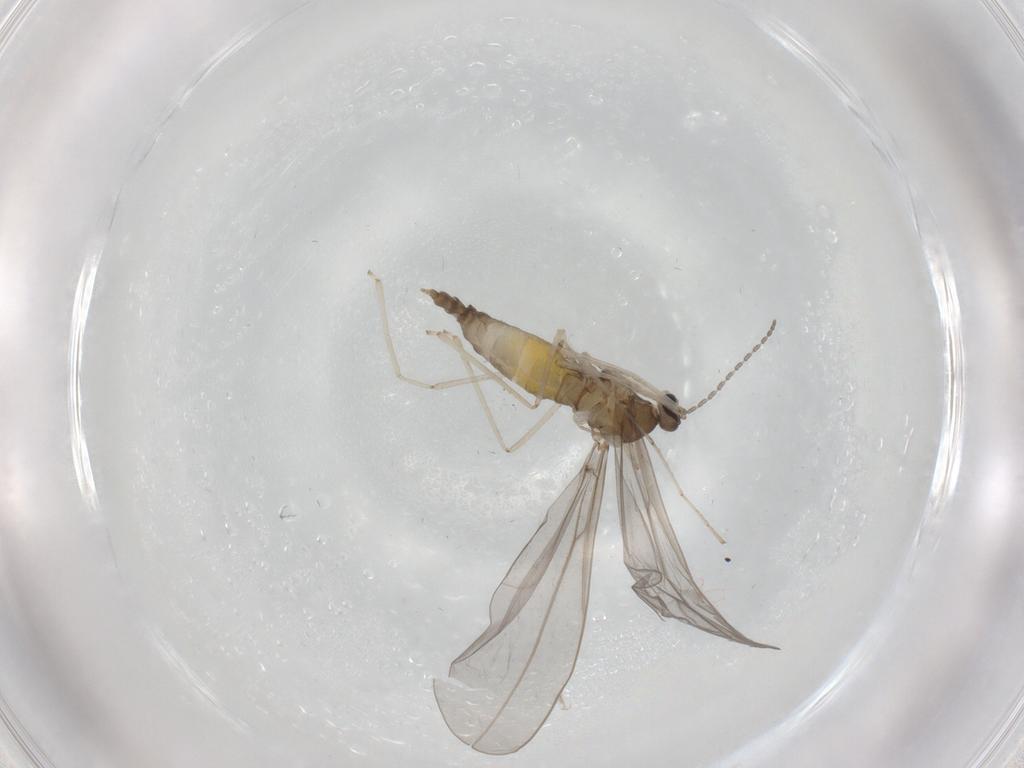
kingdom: Animalia
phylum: Arthropoda
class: Insecta
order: Diptera
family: Cecidomyiidae
